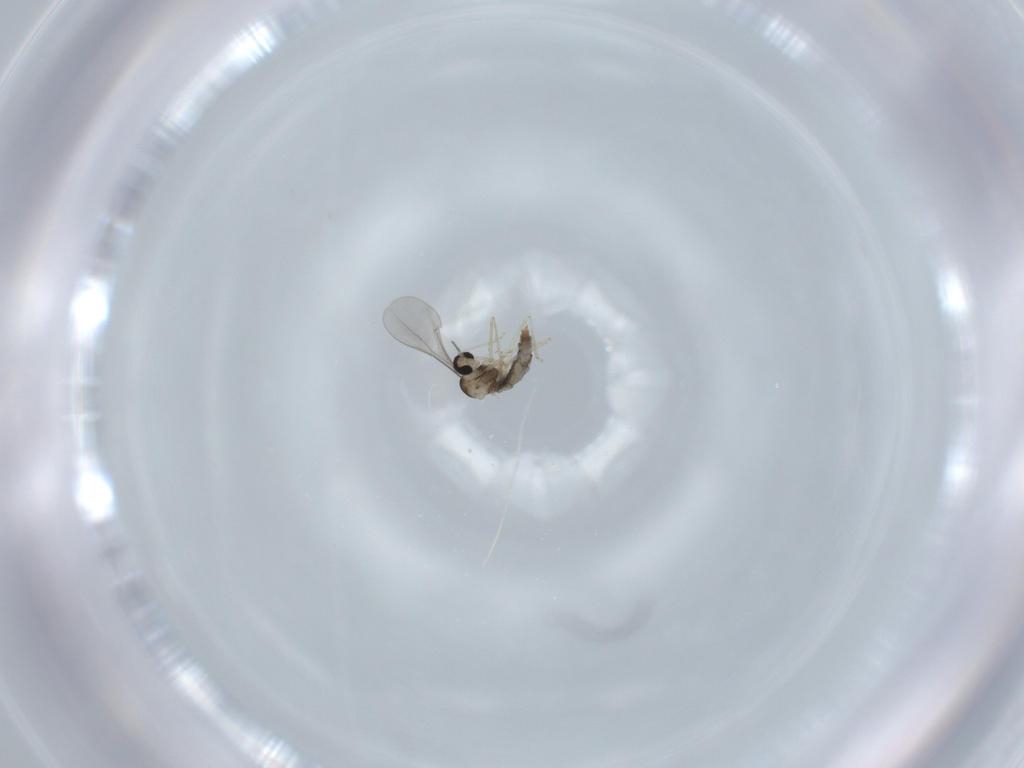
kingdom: Animalia
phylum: Arthropoda
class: Insecta
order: Diptera
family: Cecidomyiidae
